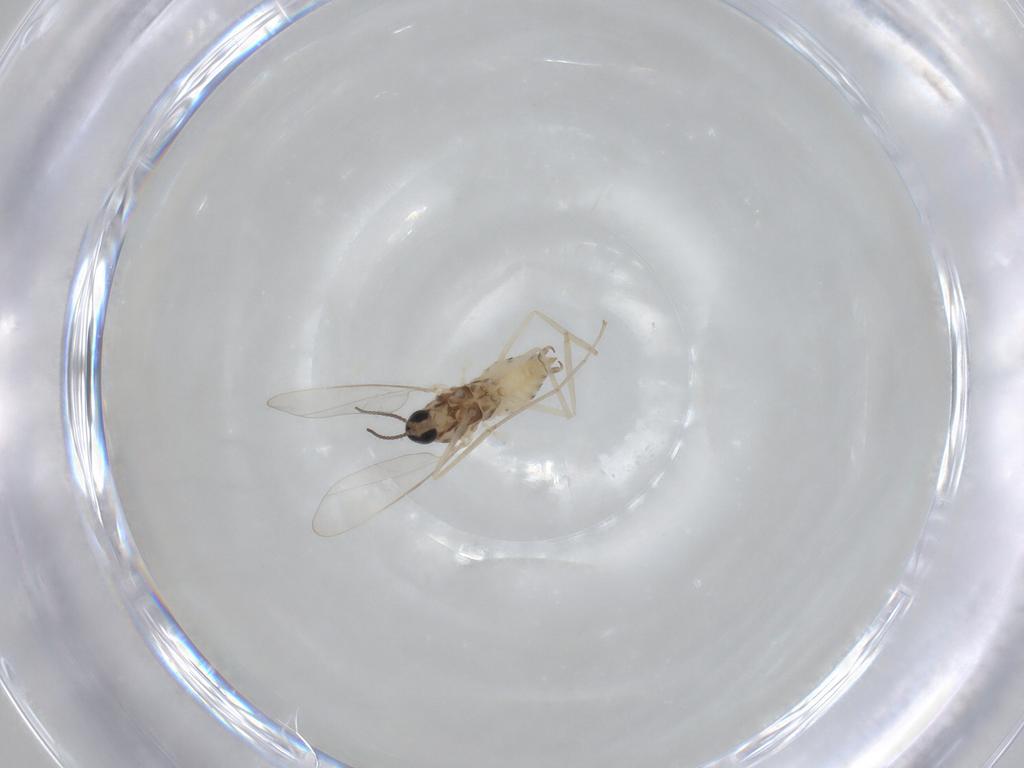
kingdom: Animalia
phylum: Arthropoda
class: Insecta
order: Diptera
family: Cecidomyiidae
